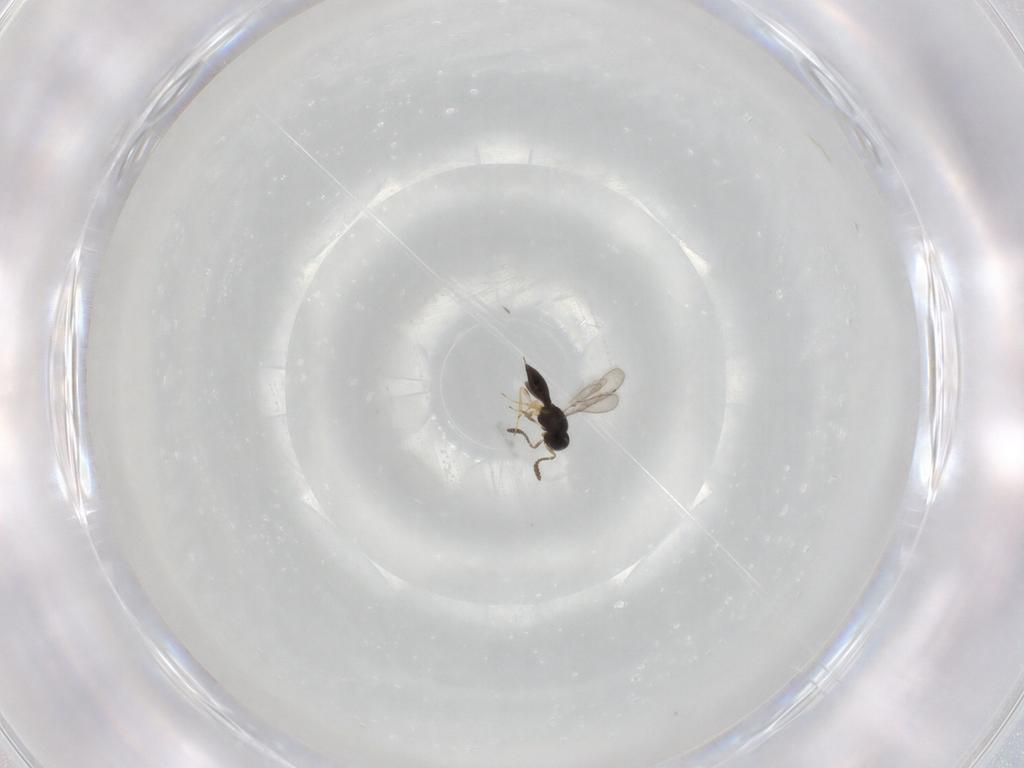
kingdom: Animalia
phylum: Arthropoda
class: Insecta
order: Hymenoptera
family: Scelionidae
